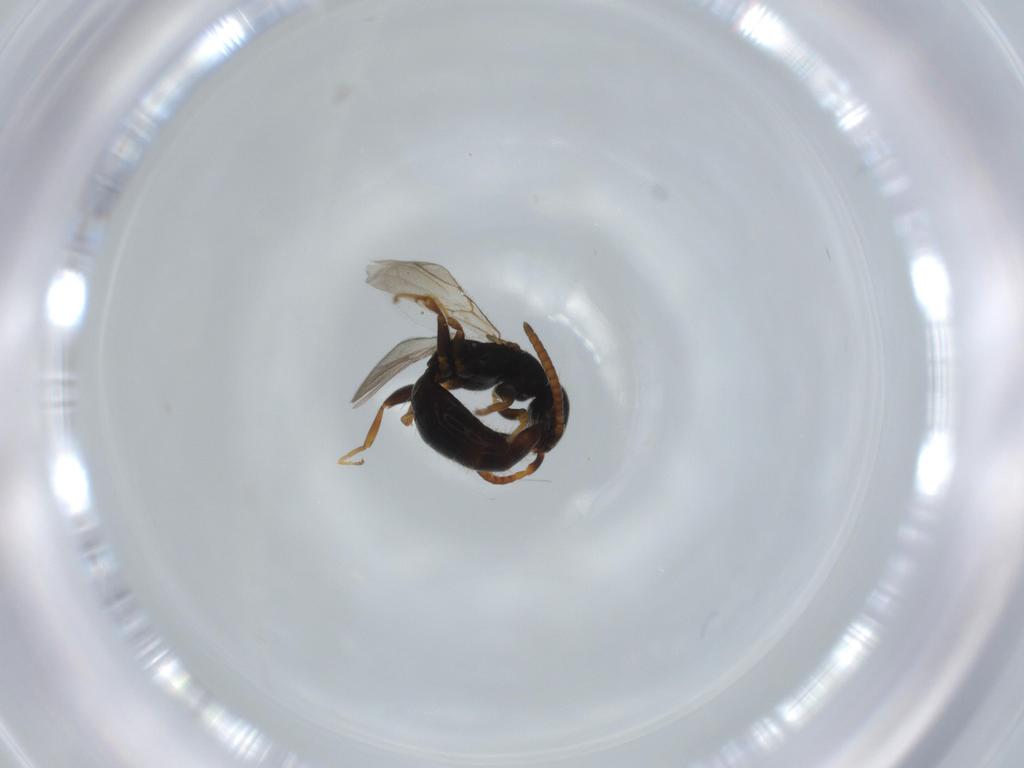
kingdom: Animalia
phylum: Arthropoda
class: Insecta
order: Hymenoptera
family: Bethylidae
